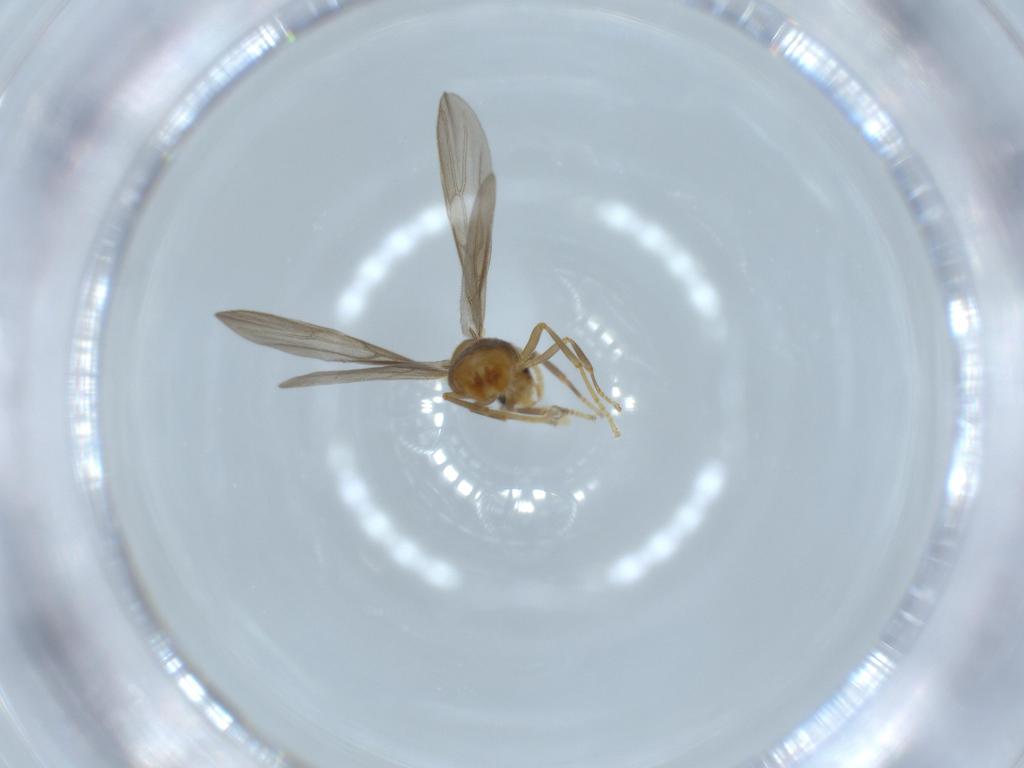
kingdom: Animalia
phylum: Arthropoda
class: Insecta
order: Hymenoptera
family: Formicidae
